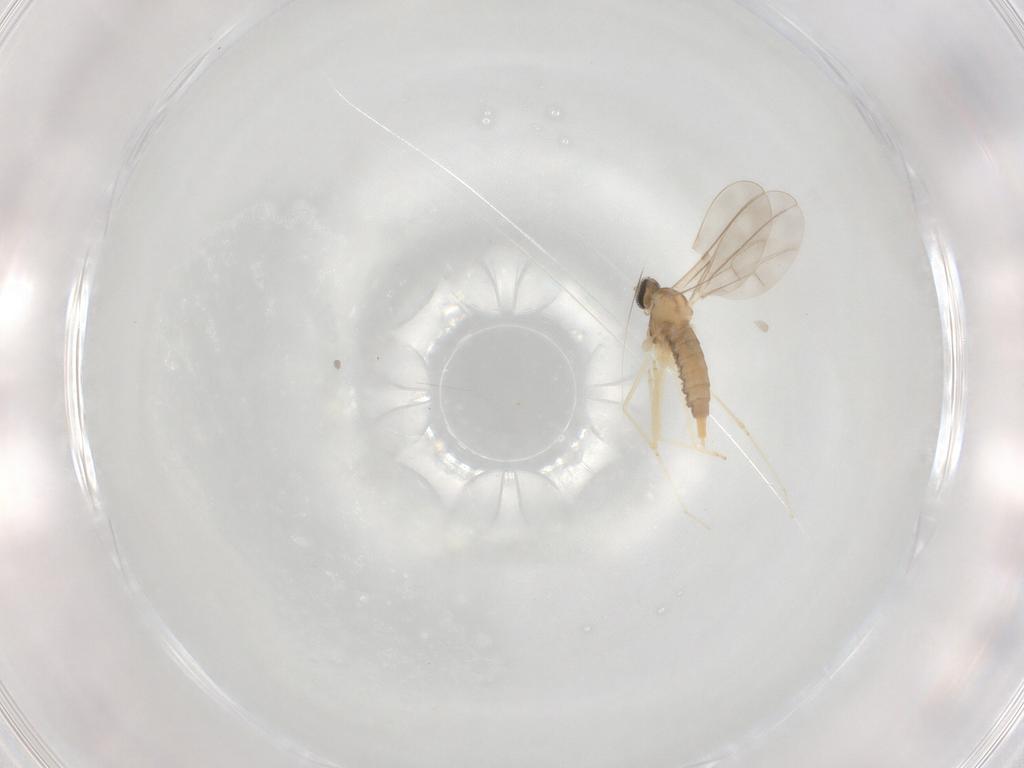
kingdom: Animalia
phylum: Arthropoda
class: Insecta
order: Diptera
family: Cecidomyiidae
